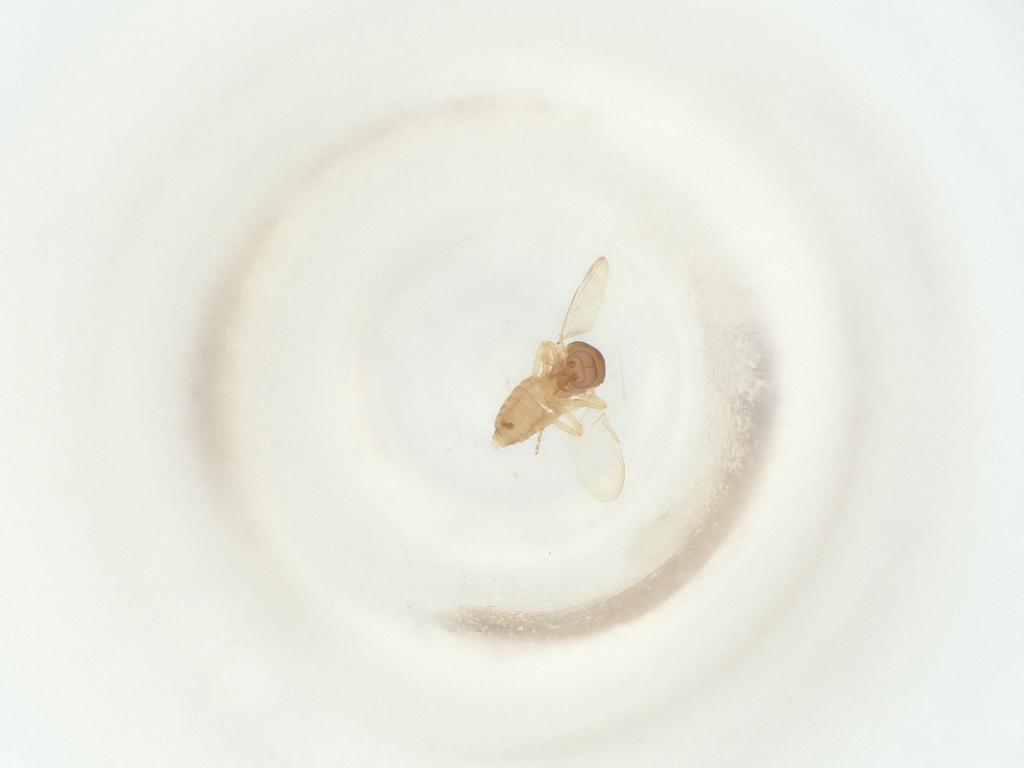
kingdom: Animalia
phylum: Arthropoda
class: Insecta
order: Diptera
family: Ceratopogonidae
